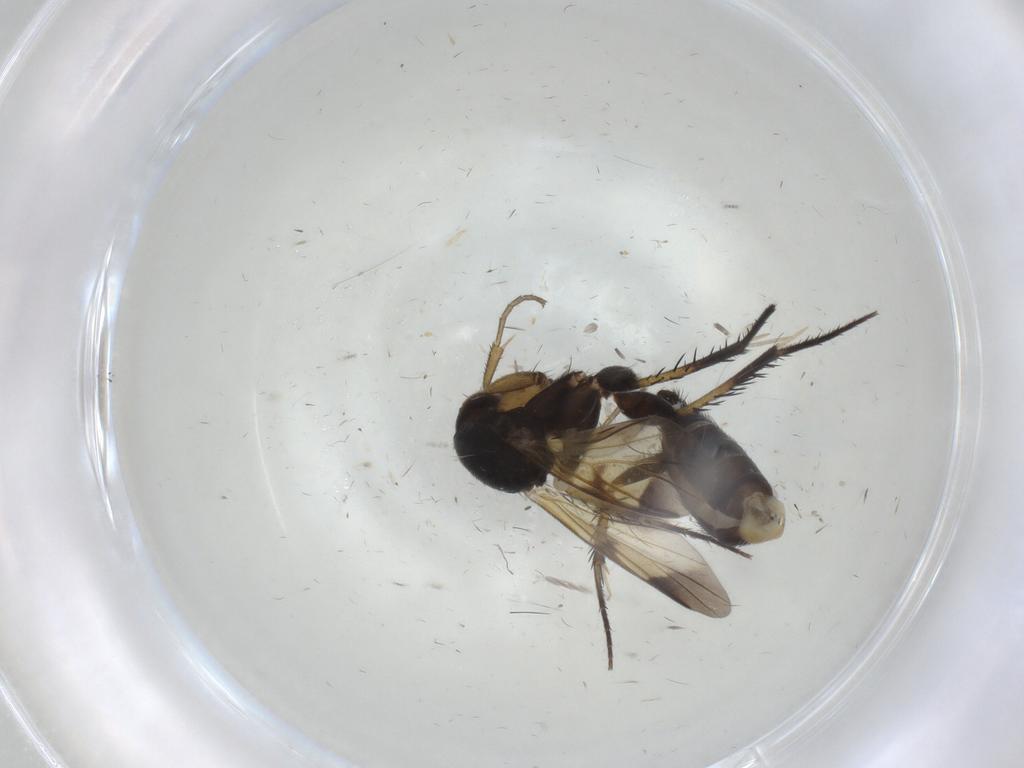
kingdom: Animalia
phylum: Arthropoda
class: Insecta
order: Diptera
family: Mycetophilidae
